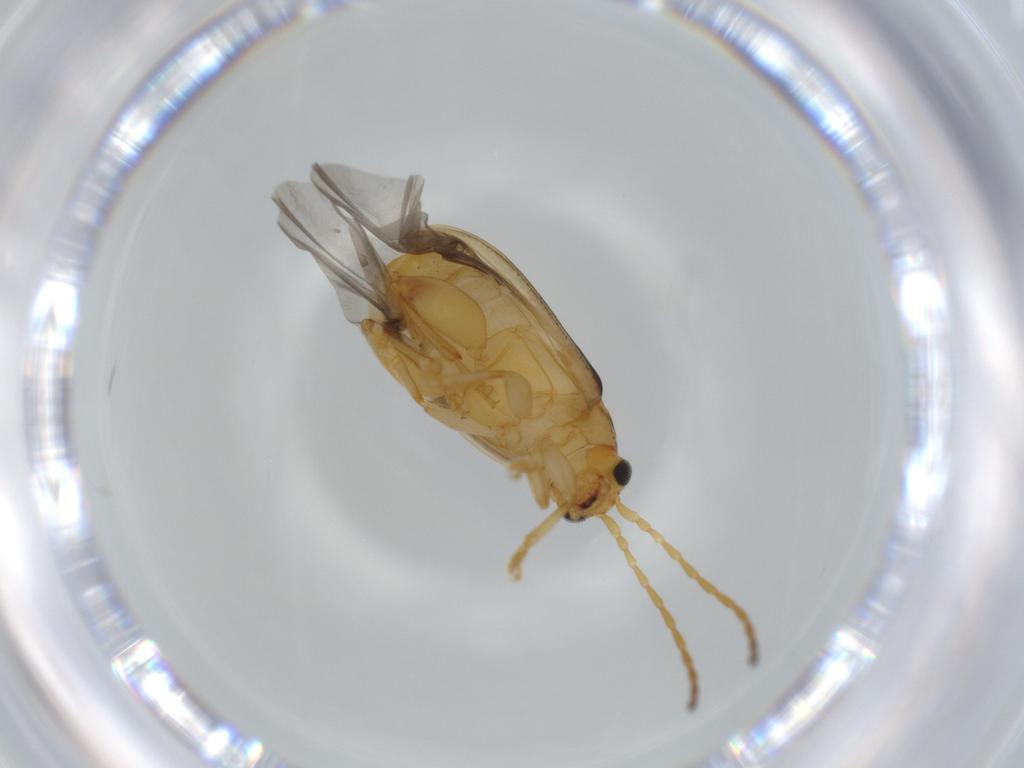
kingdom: Animalia
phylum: Arthropoda
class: Insecta
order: Coleoptera
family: Chrysomelidae
